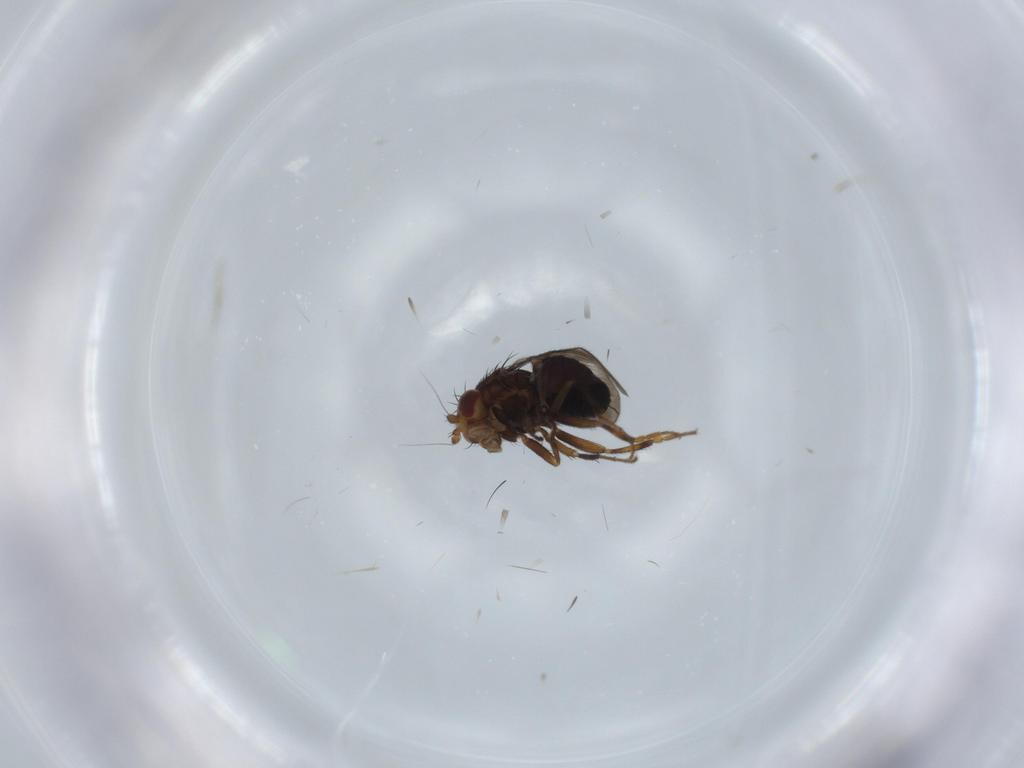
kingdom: Animalia
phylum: Arthropoda
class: Insecta
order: Diptera
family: Sphaeroceridae
